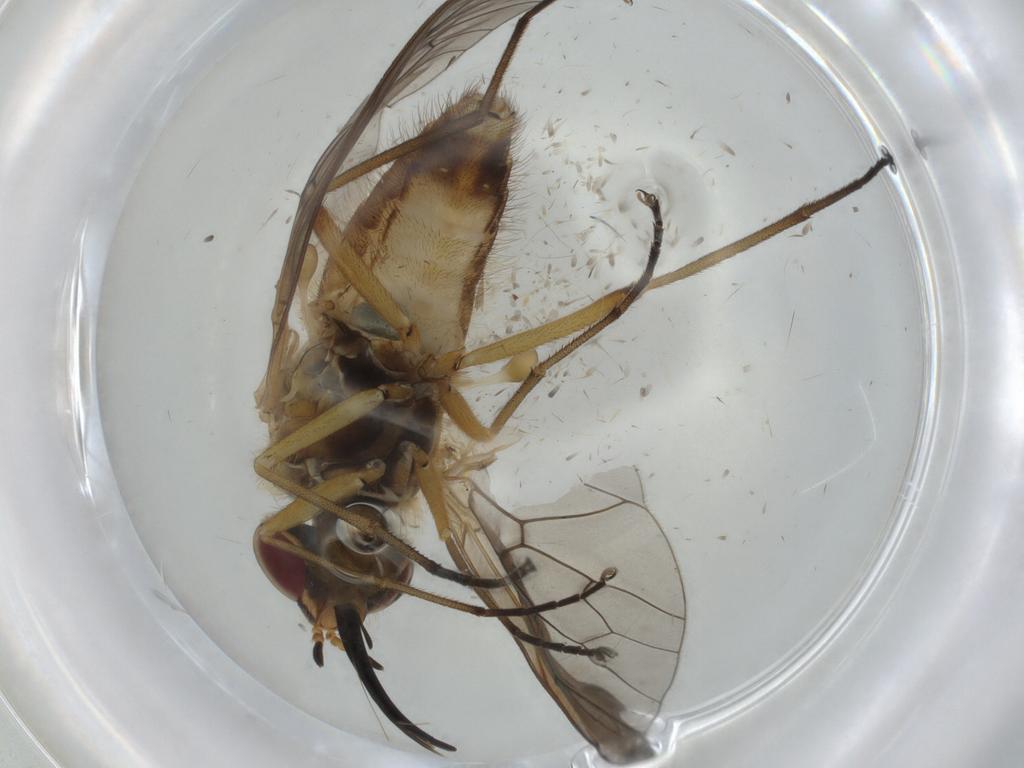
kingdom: Animalia
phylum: Arthropoda
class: Insecta
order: Diptera
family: Bombyliidae
